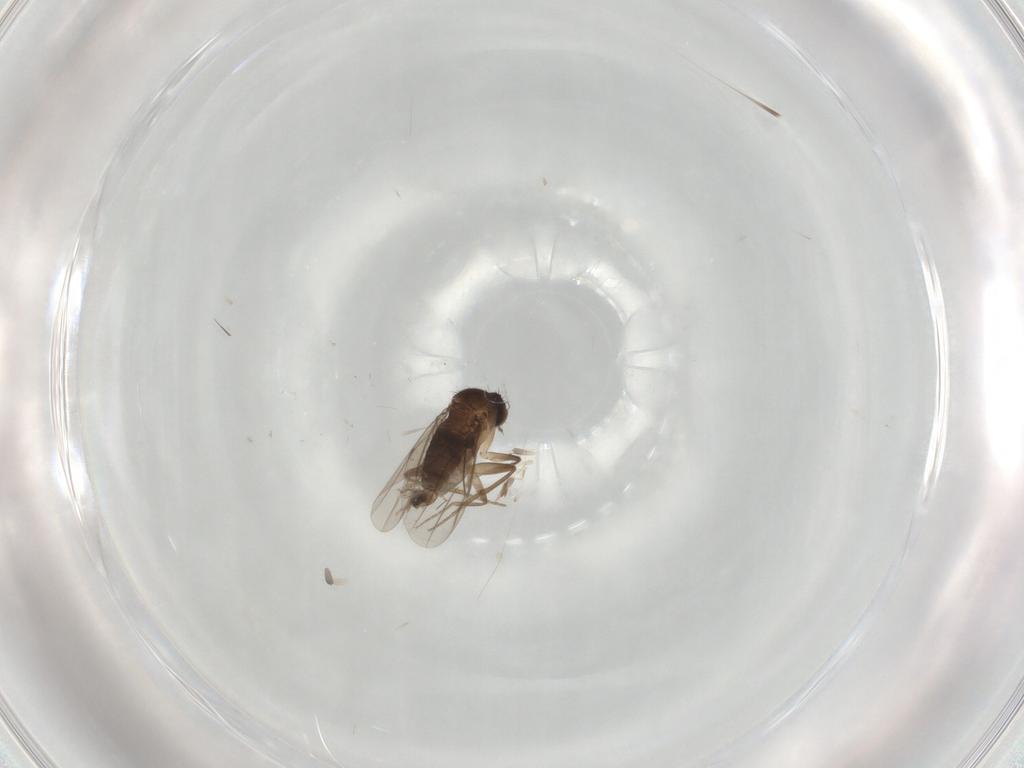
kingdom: Animalia
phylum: Arthropoda
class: Insecta
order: Diptera
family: Phoridae
